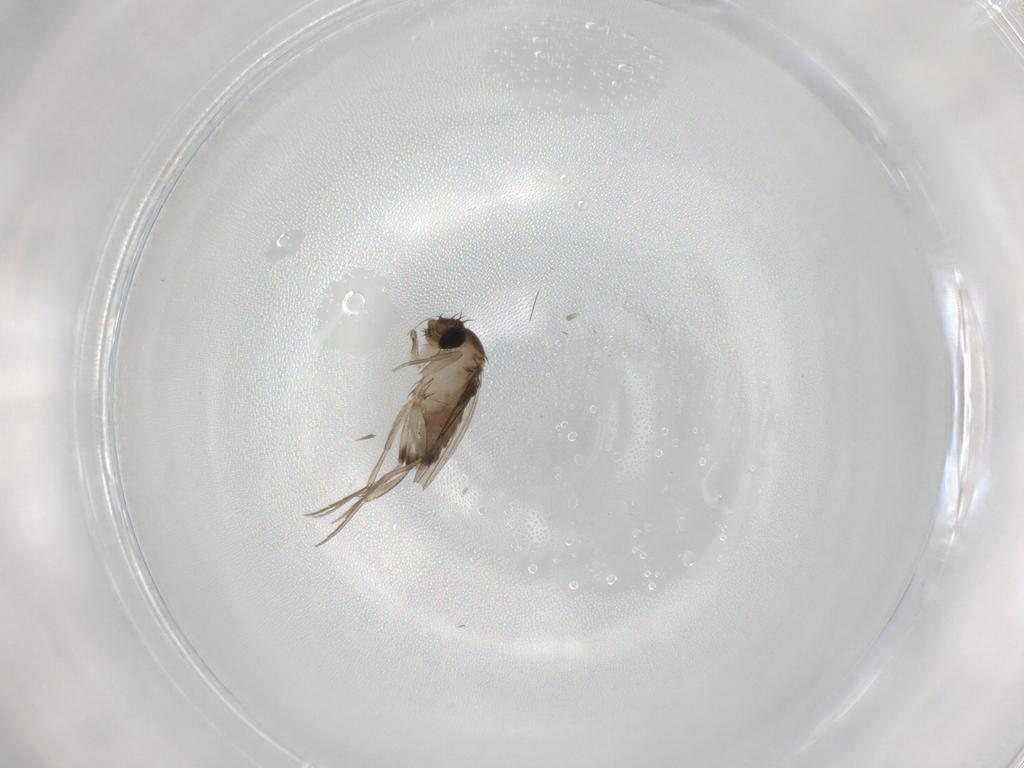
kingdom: Animalia
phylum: Arthropoda
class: Insecta
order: Diptera
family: Phoridae
